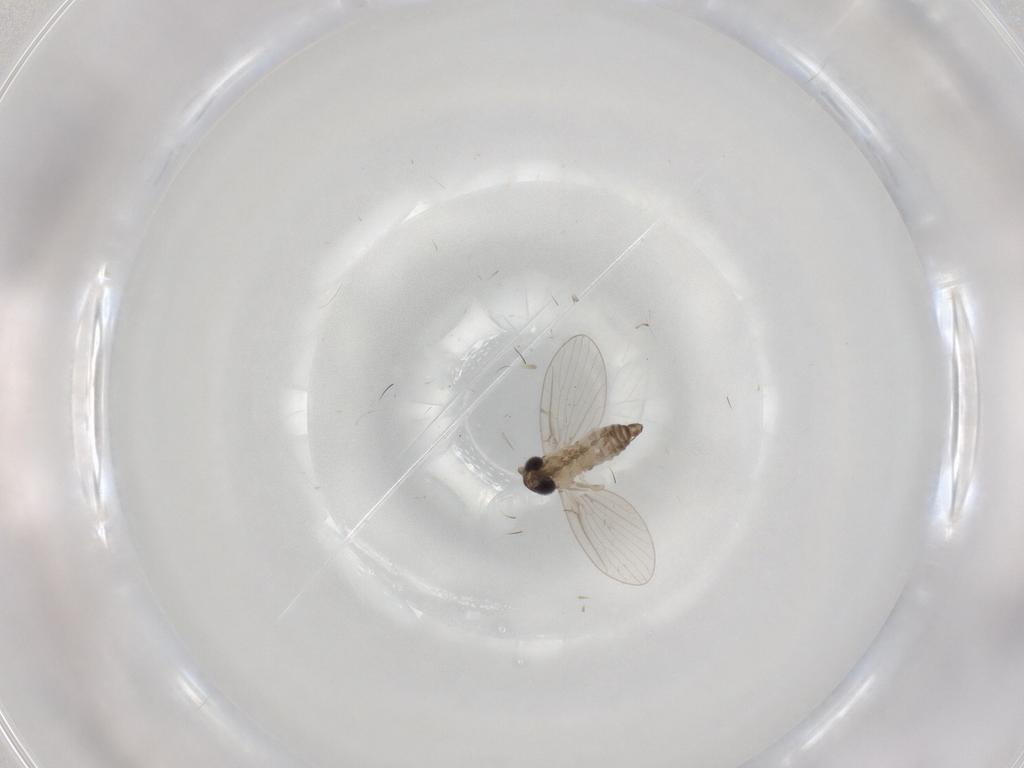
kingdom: Animalia
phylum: Arthropoda
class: Insecta
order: Diptera
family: Psychodidae
